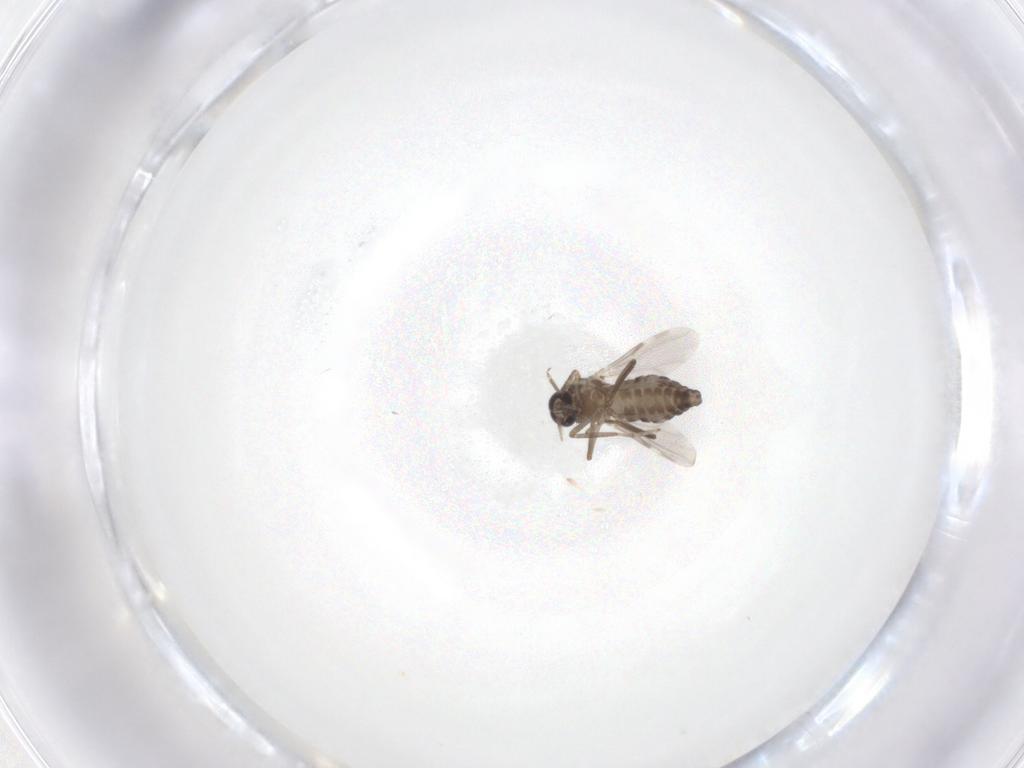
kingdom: Animalia
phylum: Arthropoda
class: Insecta
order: Diptera
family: Ceratopogonidae
